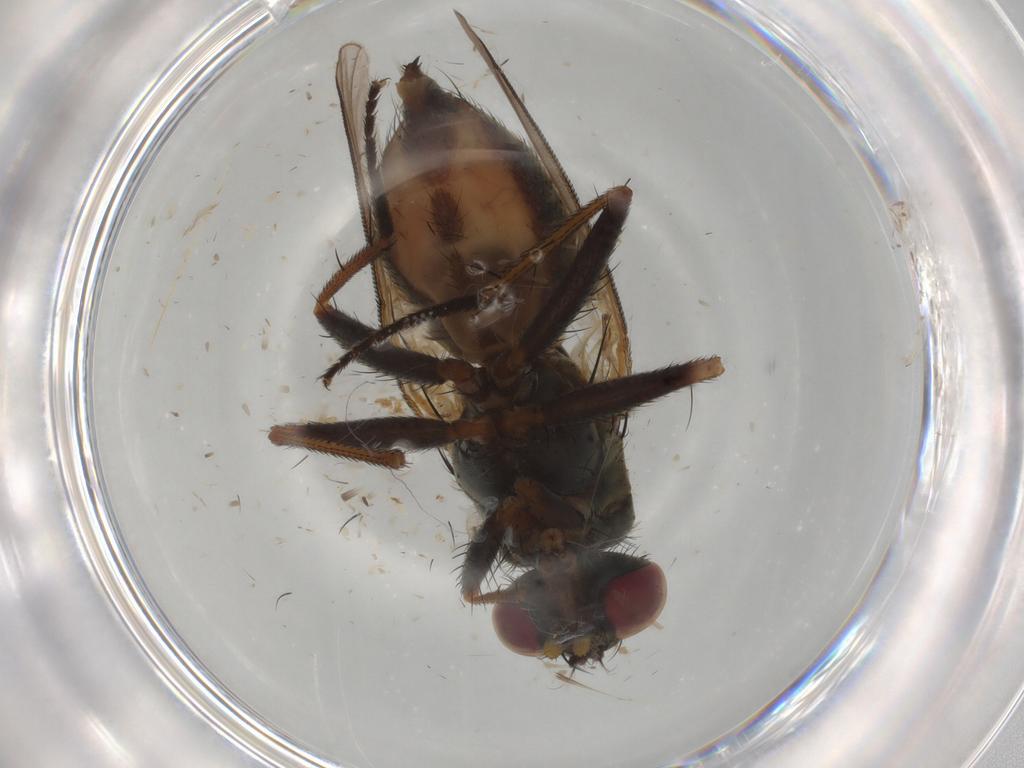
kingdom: Animalia
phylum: Arthropoda
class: Insecta
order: Diptera
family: Muscidae
